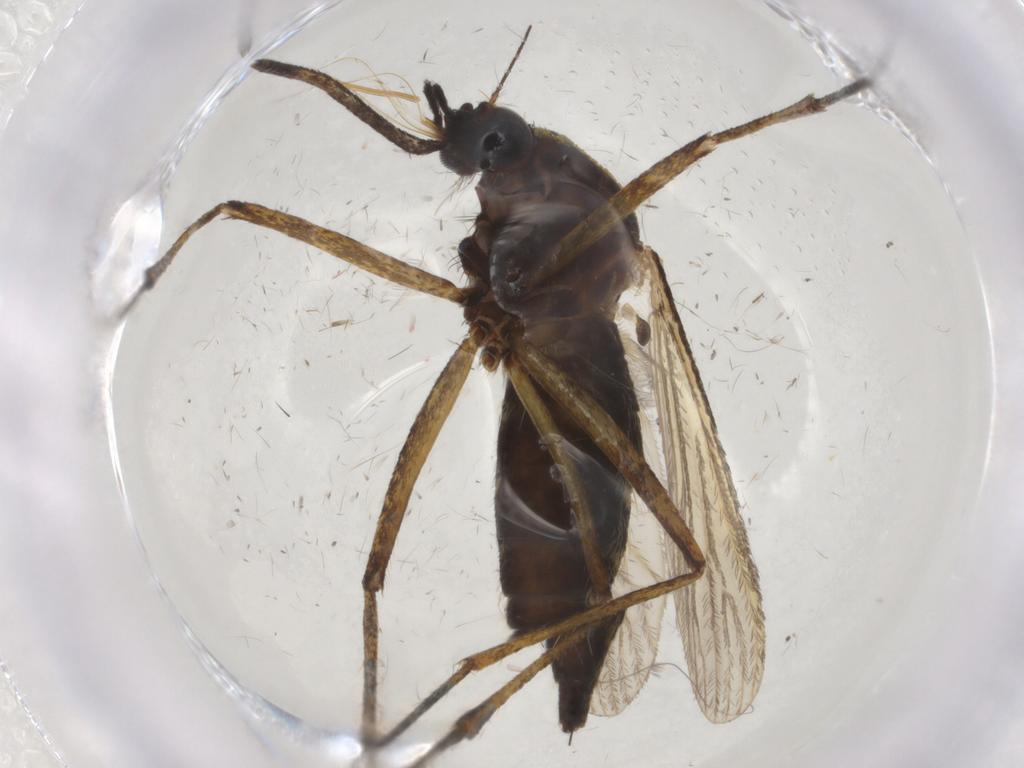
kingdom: Animalia
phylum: Arthropoda
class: Insecta
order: Diptera
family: Culicidae
